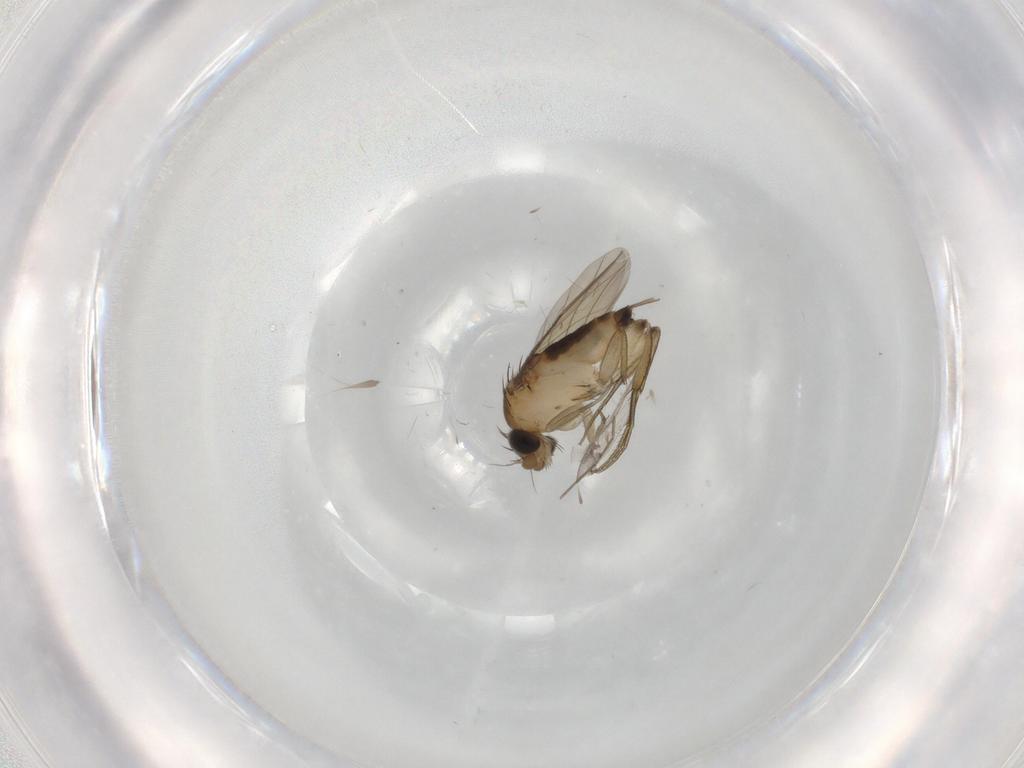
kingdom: Animalia
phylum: Arthropoda
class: Insecta
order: Diptera
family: Phoridae
